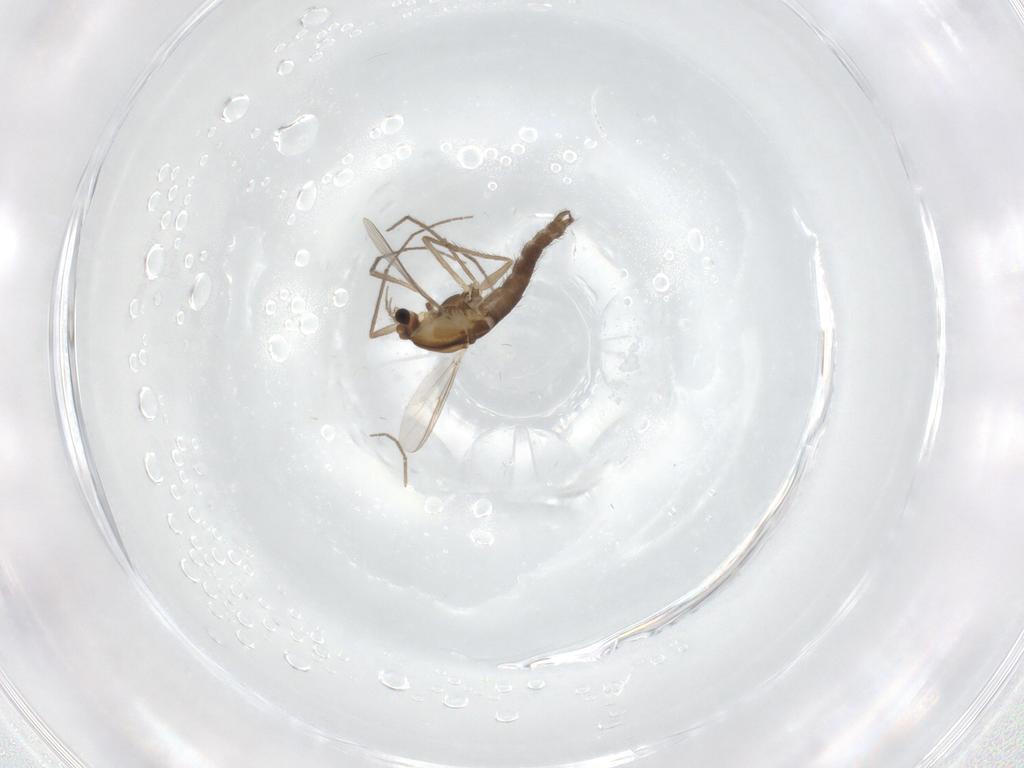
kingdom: Animalia
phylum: Arthropoda
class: Insecta
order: Diptera
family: Chironomidae
